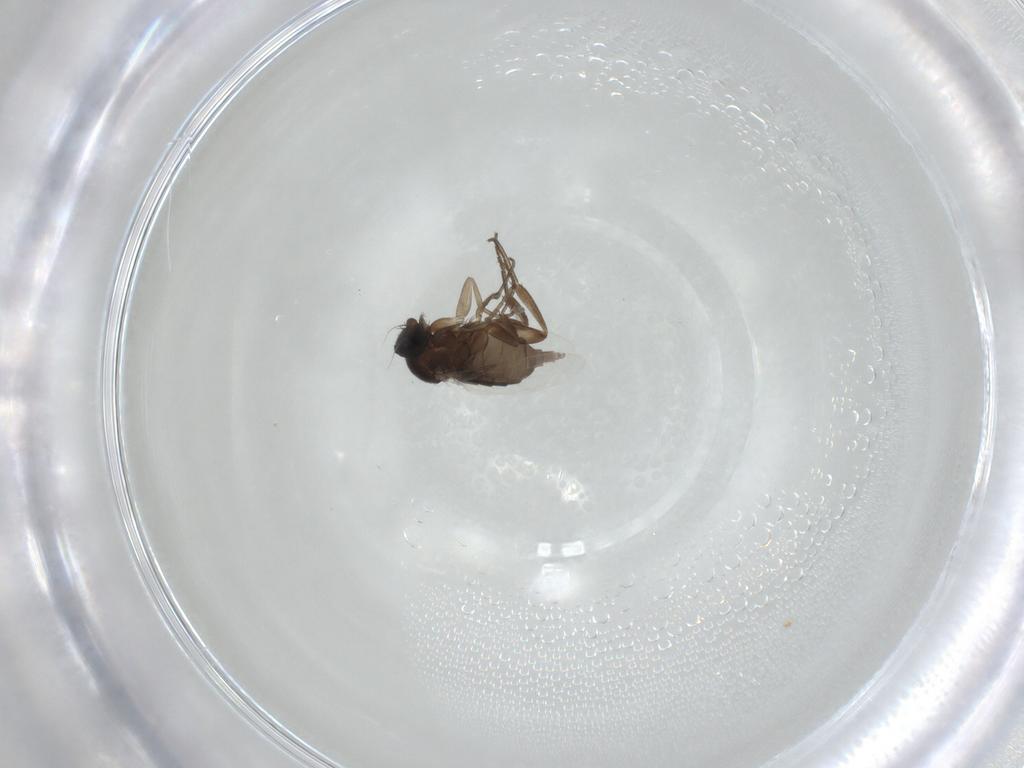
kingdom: Animalia
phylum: Arthropoda
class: Insecta
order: Diptera
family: Phoridae
